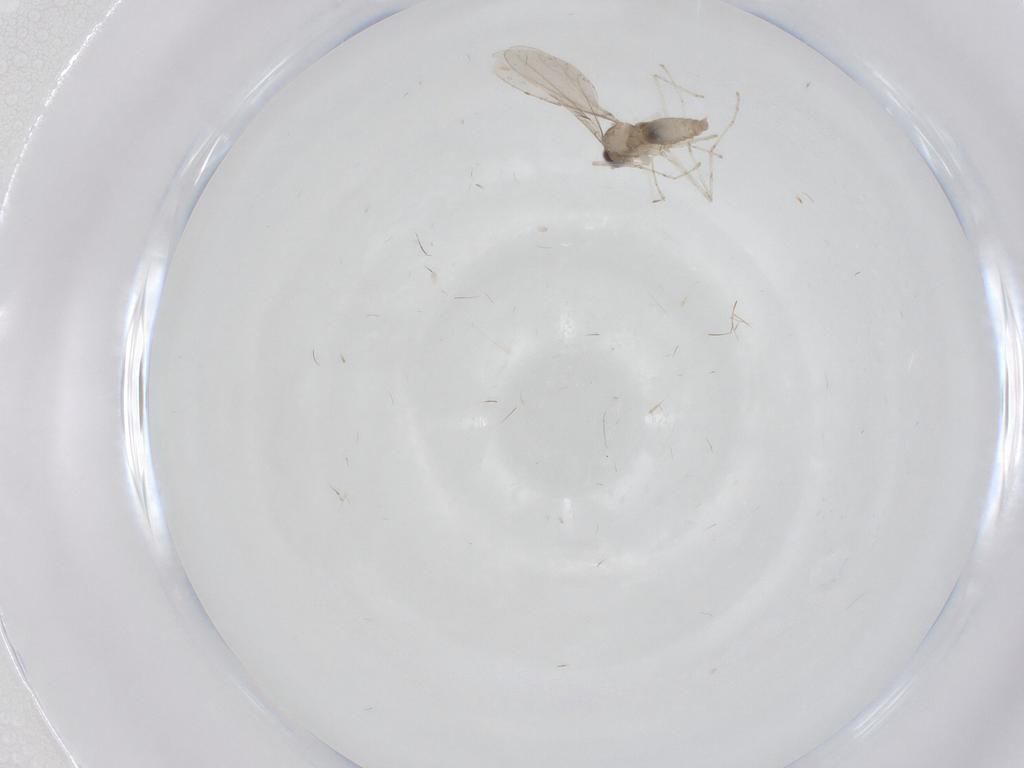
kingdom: Animalia
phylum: Arthropoda
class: Insecta
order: Diptera
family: Cecidomyiidae
